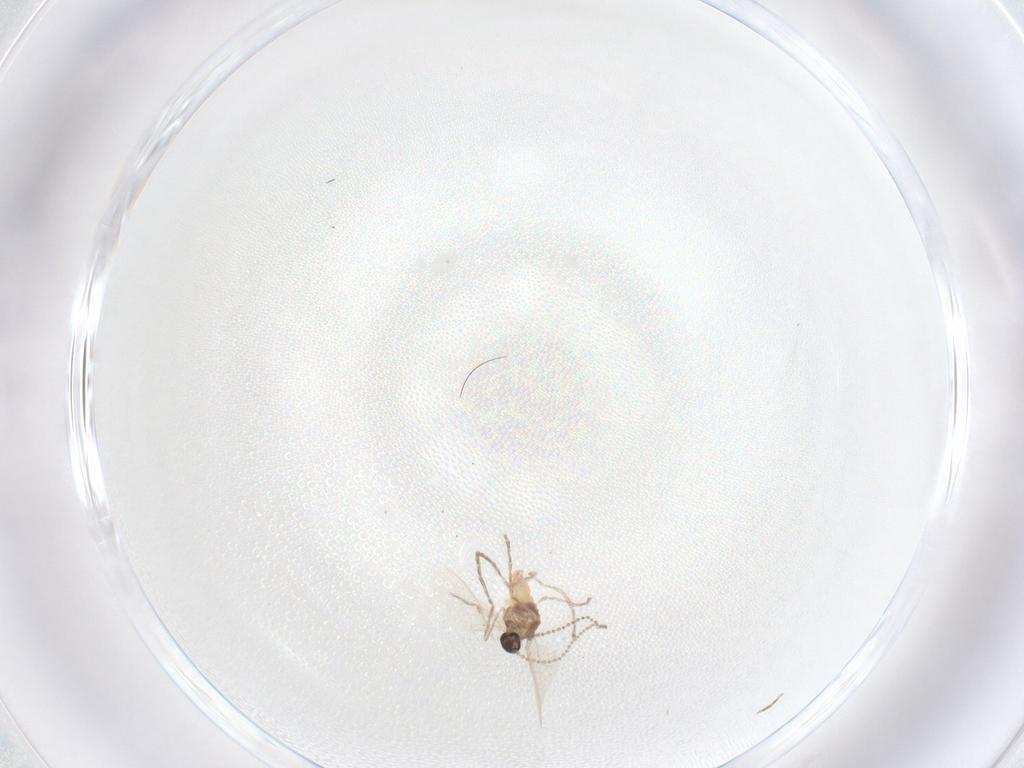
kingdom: Animalia
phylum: Arthropoda
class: Insecta
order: Diptera
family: Cecidomyiidae
